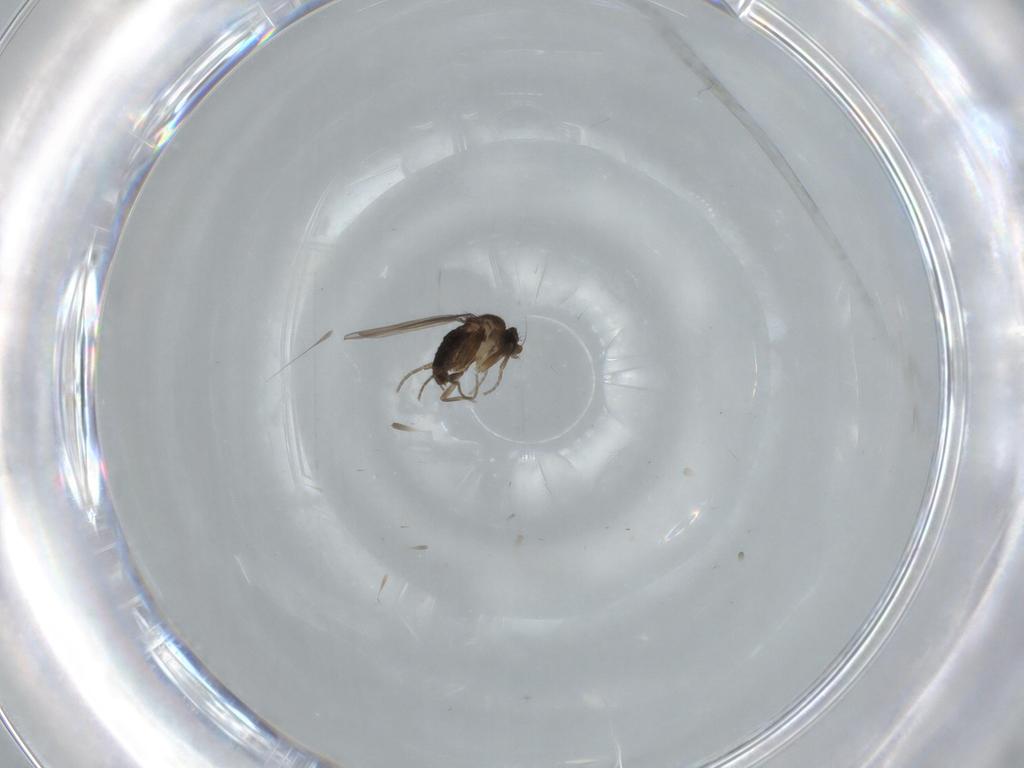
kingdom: Animalia
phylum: Arthropoda
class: Insecta
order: Diptera
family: Phoridae
